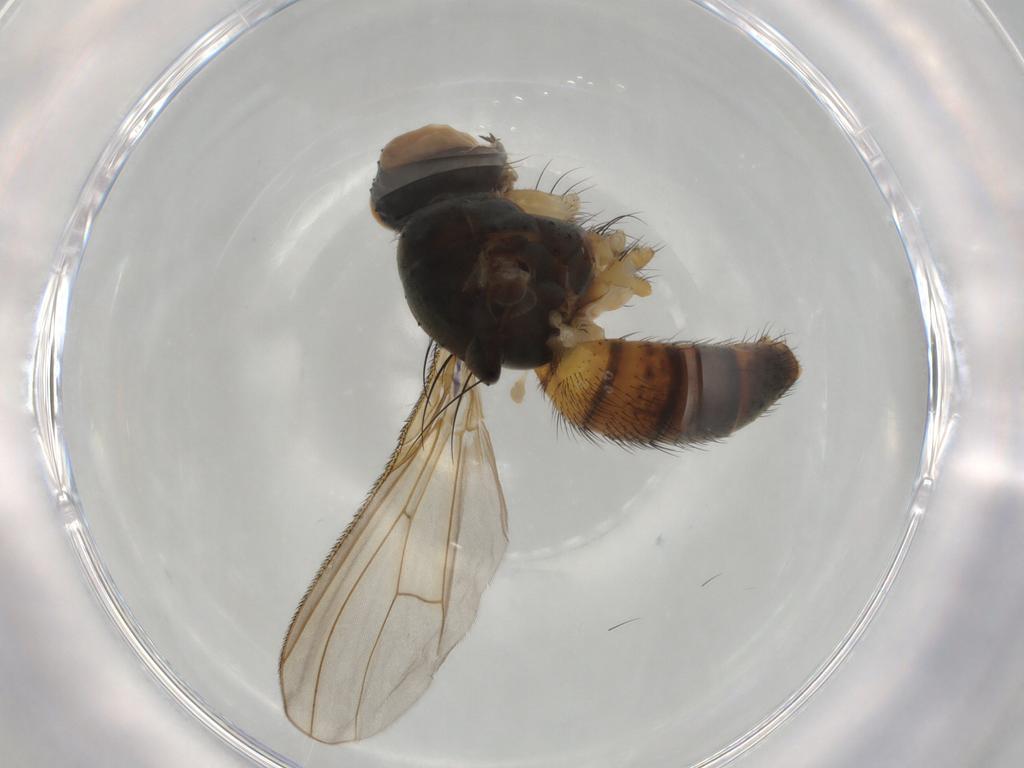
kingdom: Animalia
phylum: Arthropoda
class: Insecta
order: Diptera
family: Muscidae
